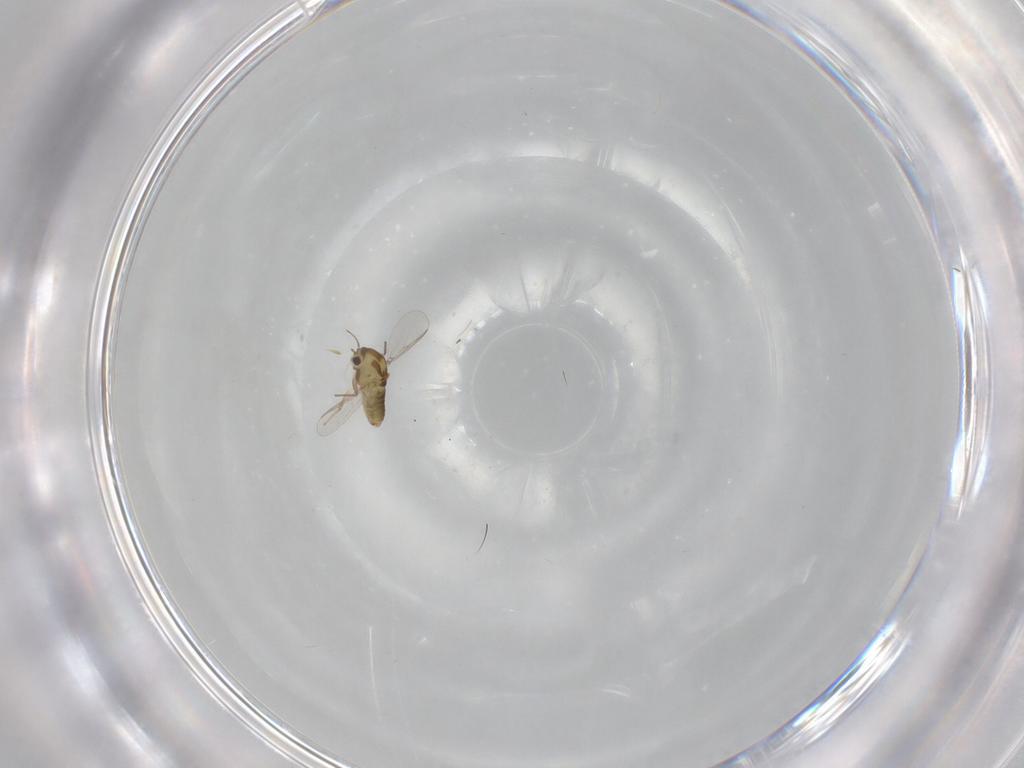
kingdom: Animalia
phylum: Arthropoda
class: Insecta
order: Diptera
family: Chironomidae
